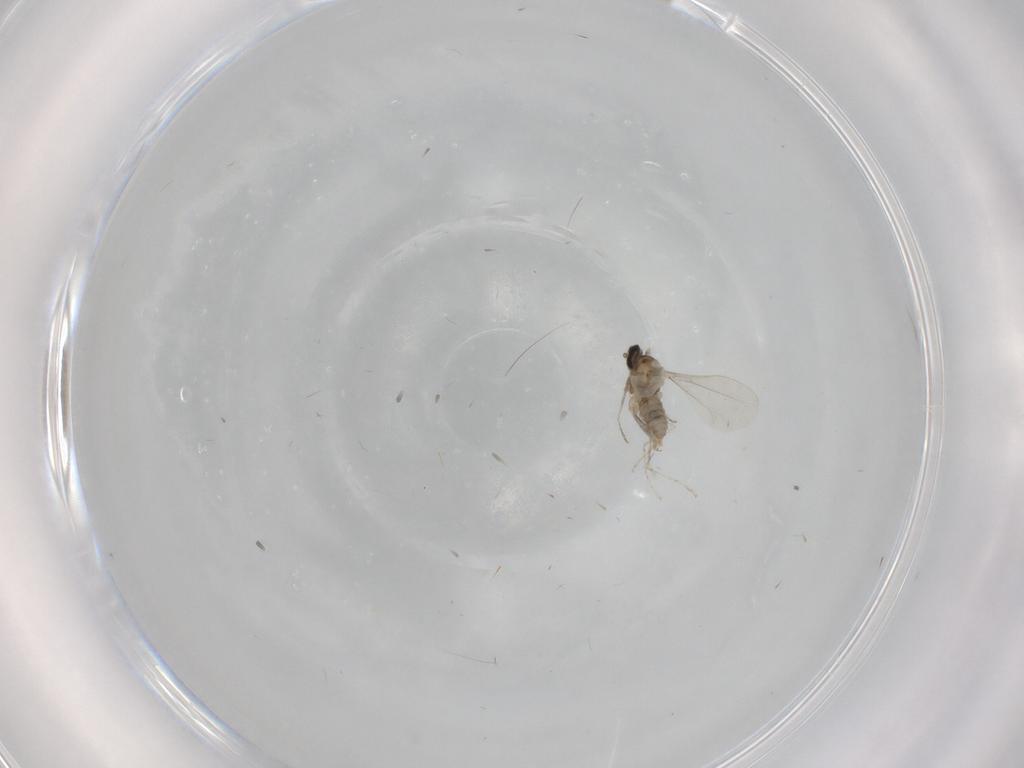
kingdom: Animalia
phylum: Arthropoda
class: Insecta
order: Diptera
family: Cecidomyiidae
